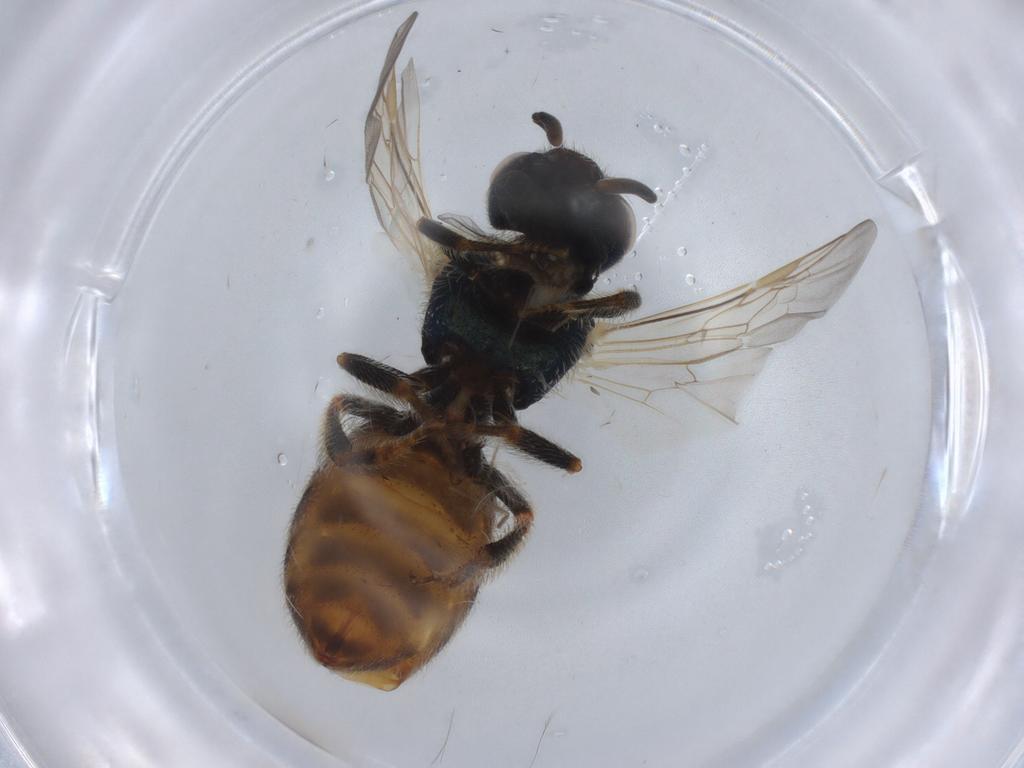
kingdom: Animalia
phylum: Arthropoda
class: Insecta
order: Hymenoptera
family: Halictidae
